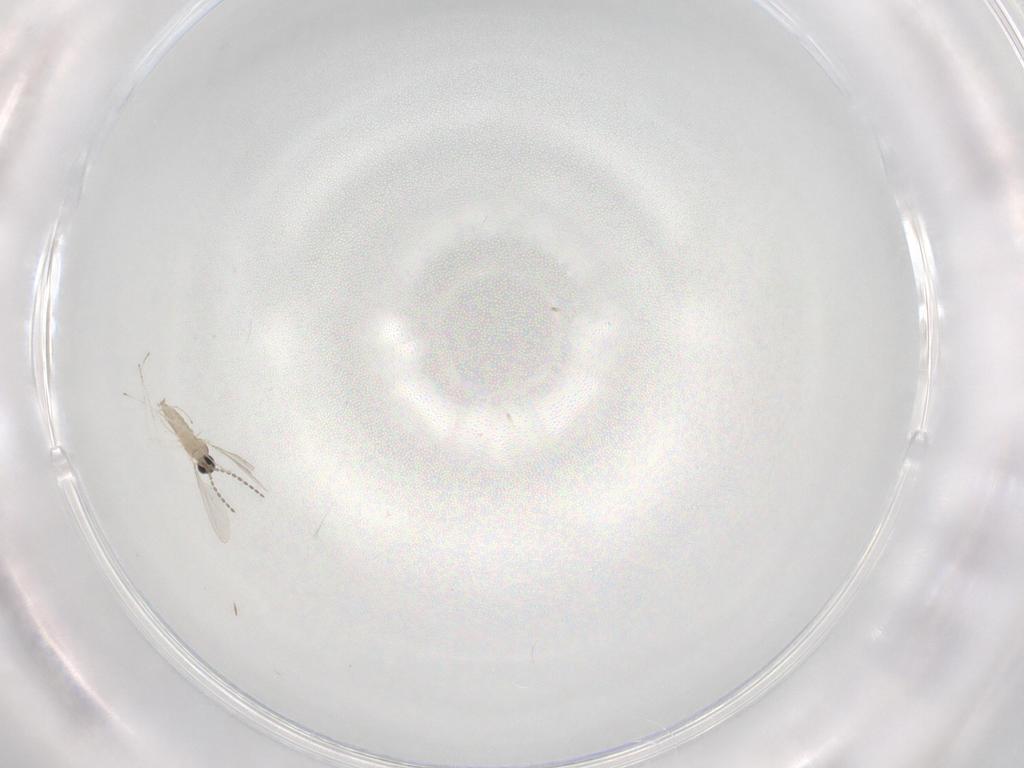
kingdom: Animalia
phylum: Arthropoda
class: Insecta
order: Diptera
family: Cecidomyiidae
